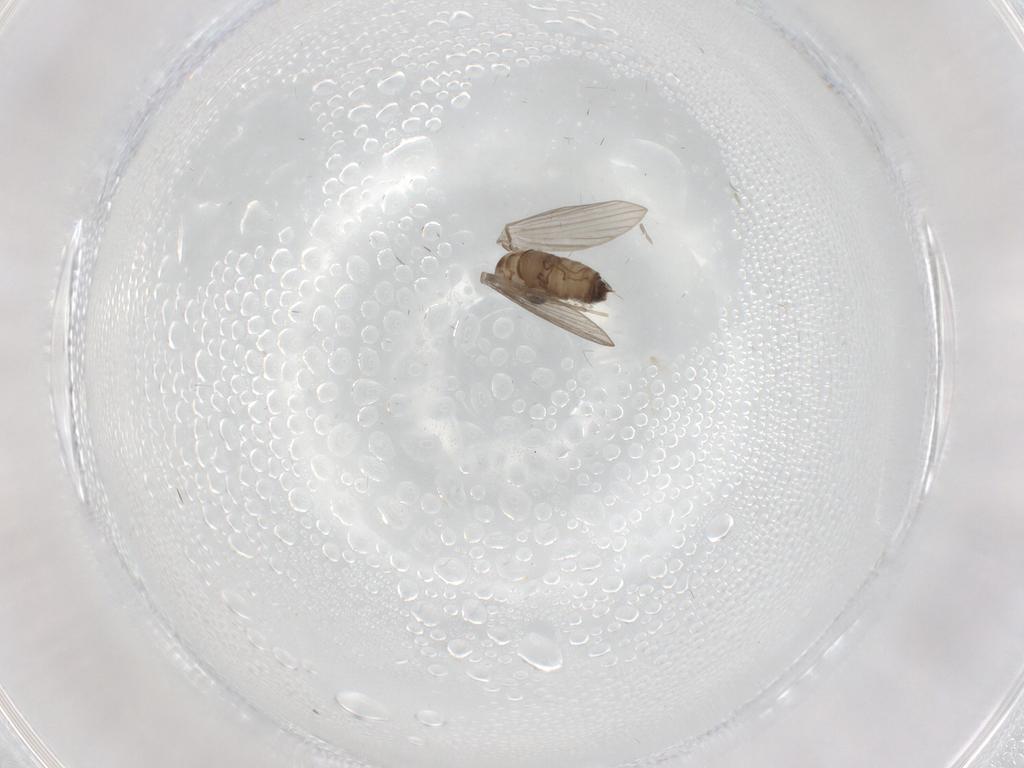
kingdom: Animalia
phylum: Arthropoda
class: Insecta
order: Diptera
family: Psychodidae
